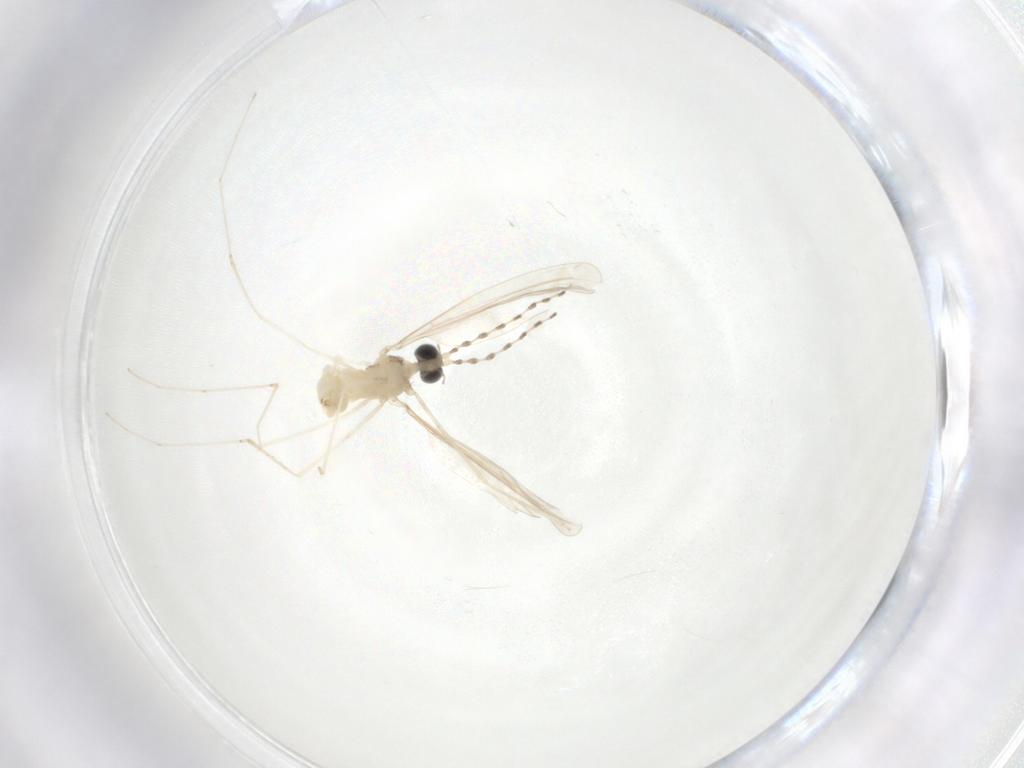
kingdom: Animalia
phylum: Arthropoda
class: Insecta
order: Diptera
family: Cecidomyiidae
